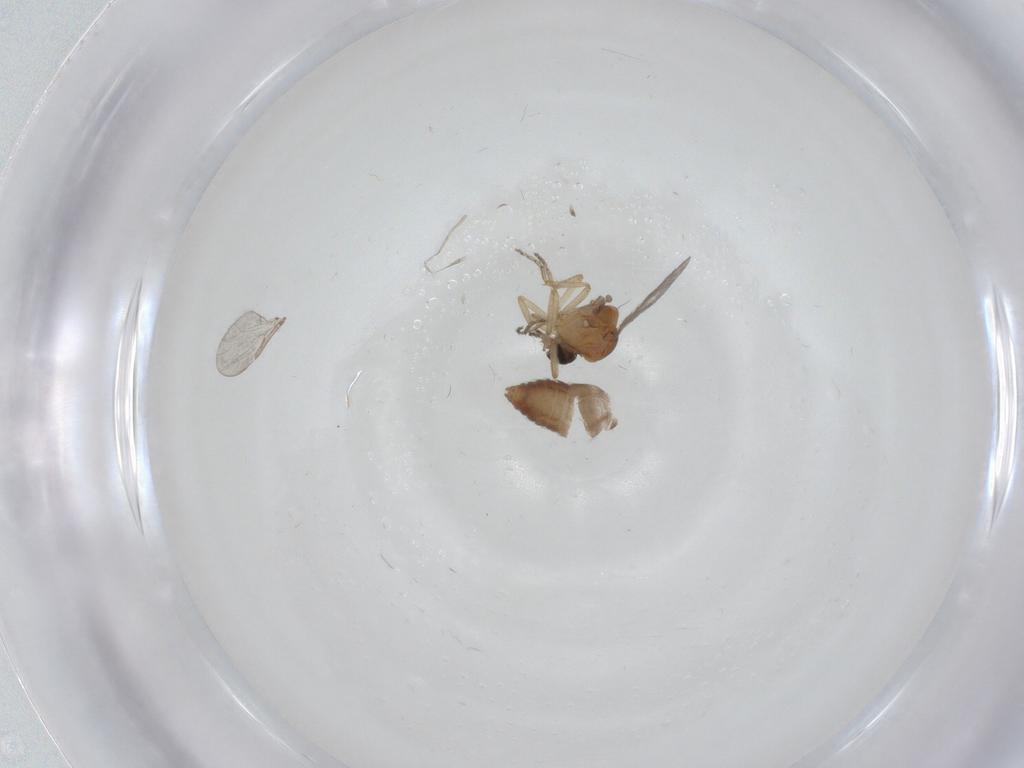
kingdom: Animalia
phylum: Arthropoda
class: Insecta
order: Diptera
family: Ceratopogonidae
